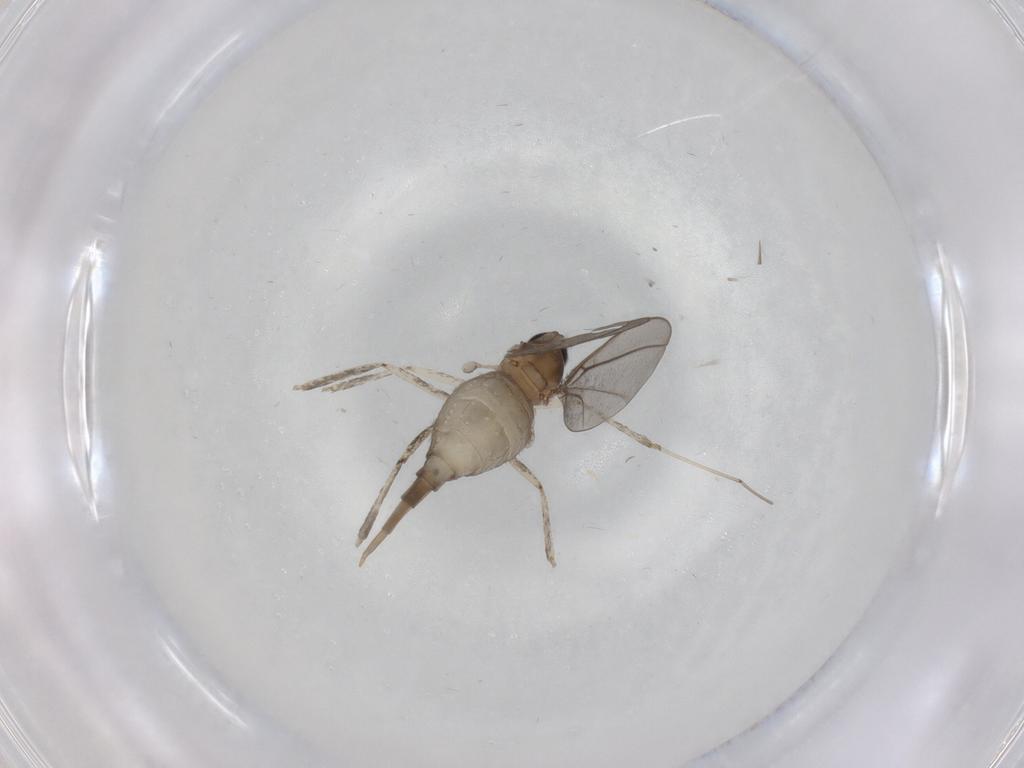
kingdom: Animalia
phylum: Arthropoda
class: Insecta
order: Diptera
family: Cecidomyiidae
